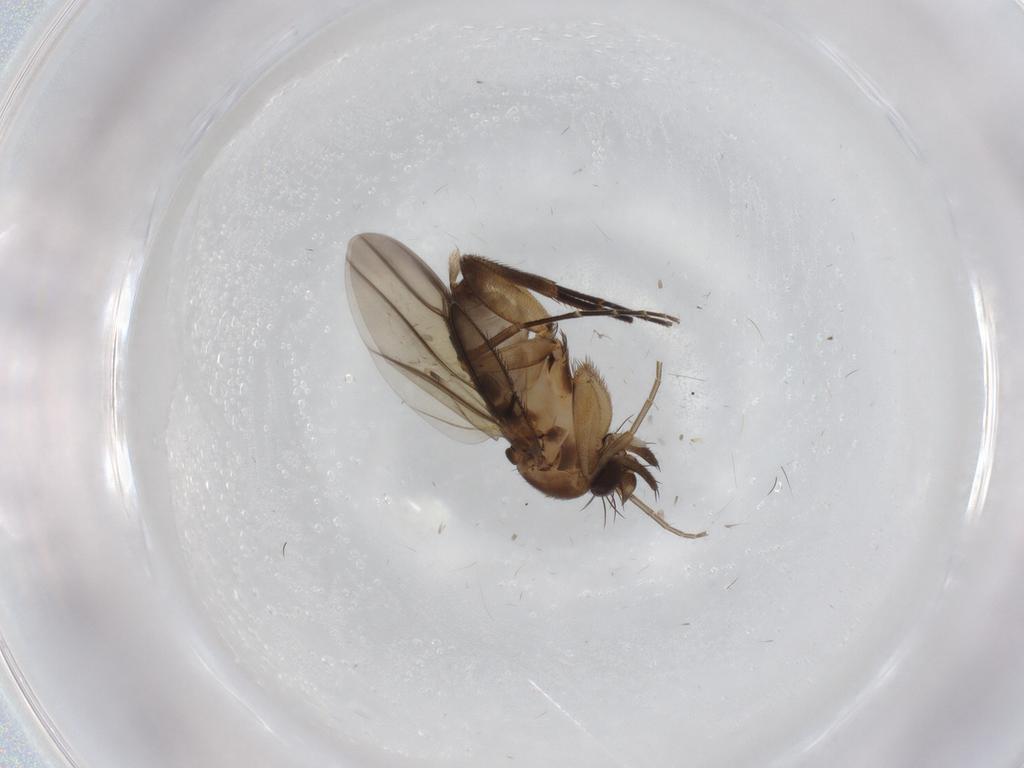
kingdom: Animalia
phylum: Arthropoda
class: Insecta
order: Diptera
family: Phoridae
